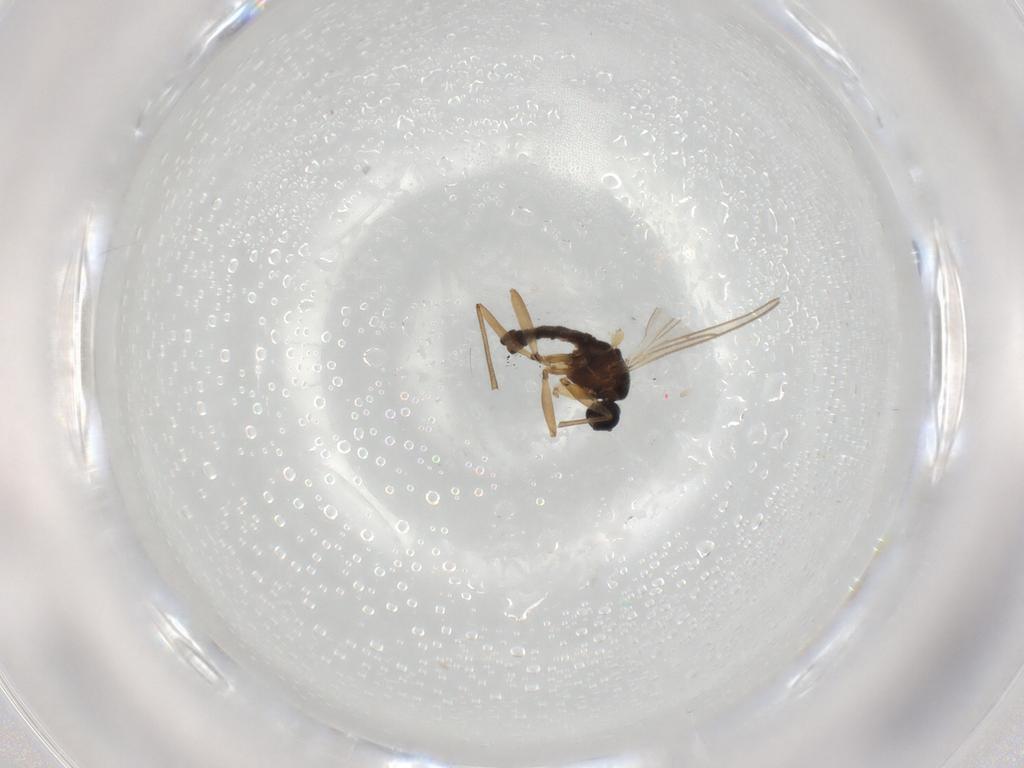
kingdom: Animalia
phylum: Arthropoda
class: Insecta
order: Diptera
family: Sciaridae
